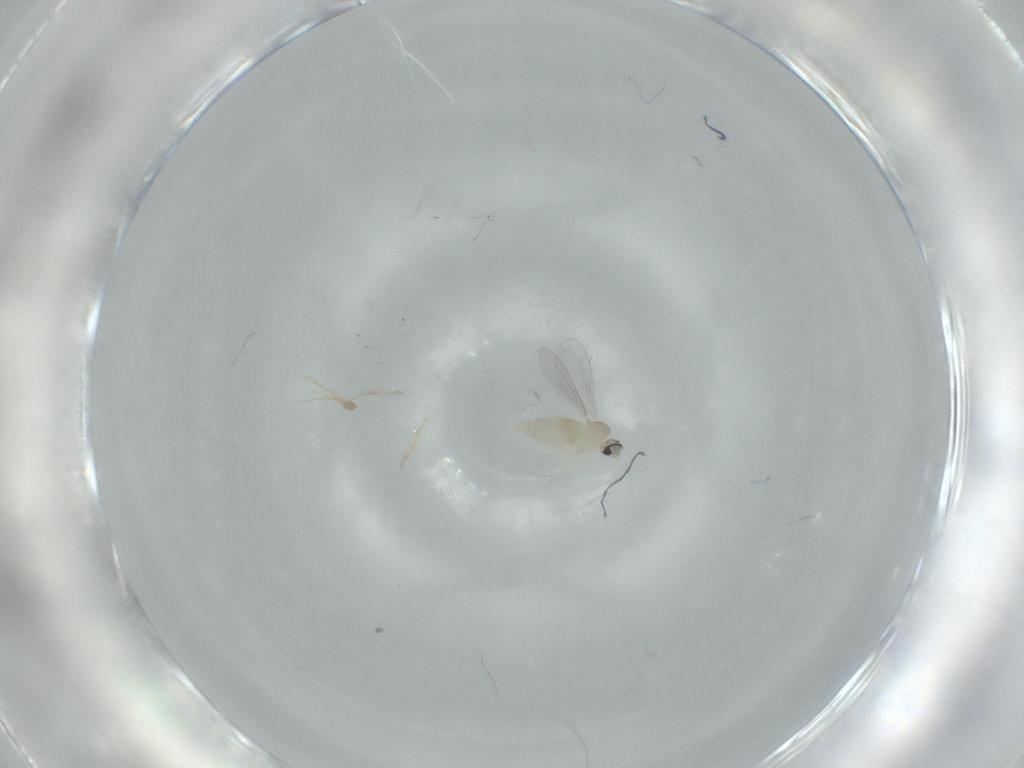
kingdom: Animalia
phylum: Arthropoda
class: Insecta
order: Diptera
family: Cecidomyiidae
